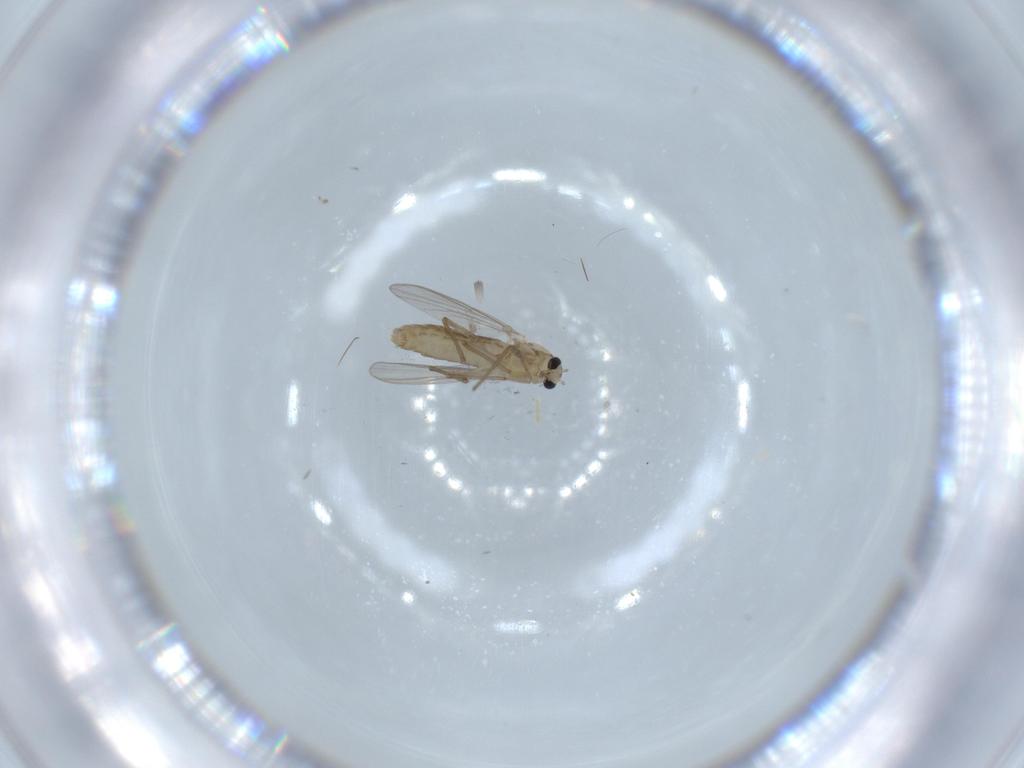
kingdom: Animalia
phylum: Arthropoda
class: Insecta
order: Diptera
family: Chironomidae
